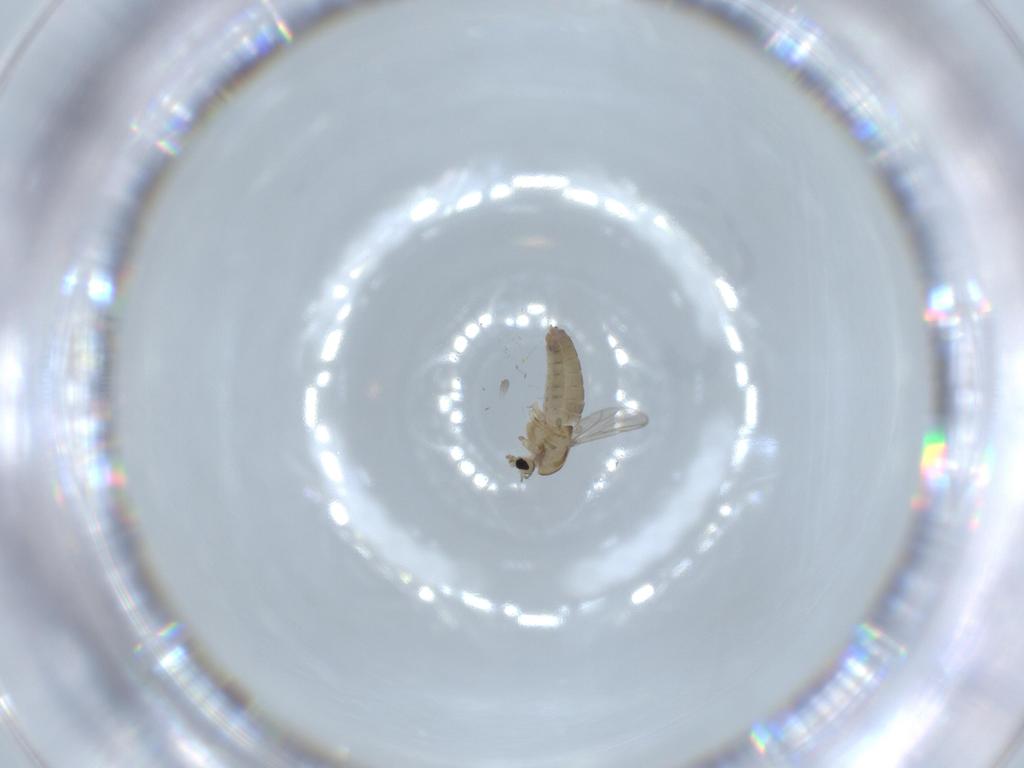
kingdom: Animalia
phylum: Arthropoda
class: Insecta
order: Diptera
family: Chironomidae
